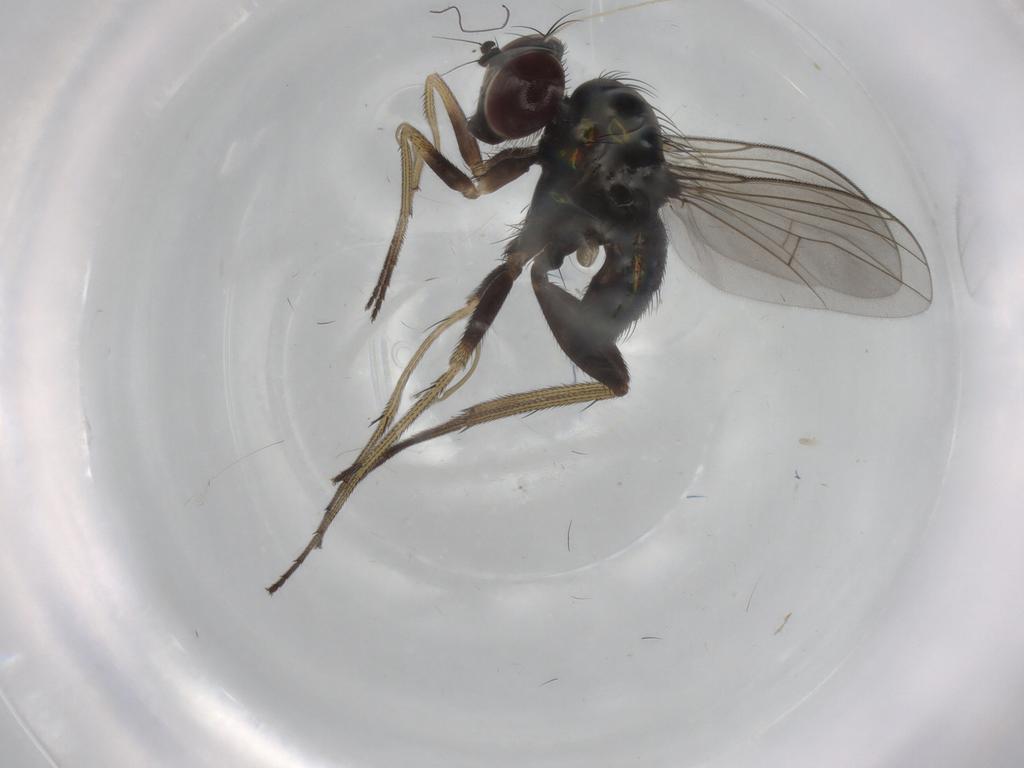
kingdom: Animalia
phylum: Arthropoda
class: Insecta
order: Diptera
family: Dolichopodidae
